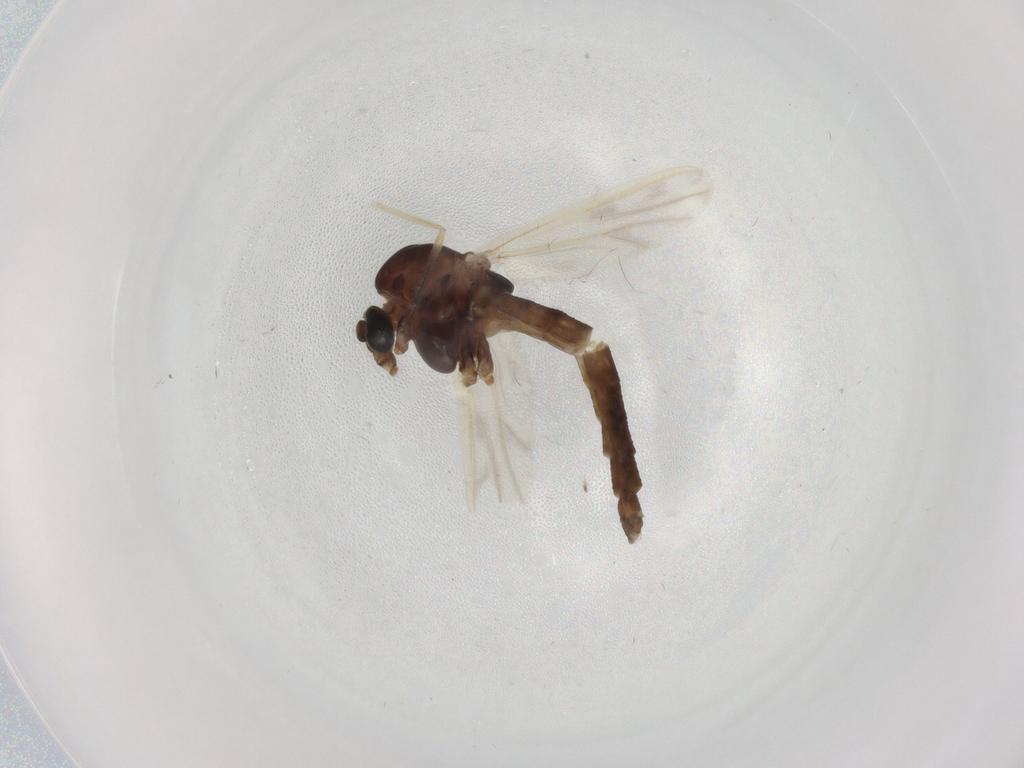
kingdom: Animalia
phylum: Arthropoda
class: Insecta
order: Diptera
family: Chironomidae
